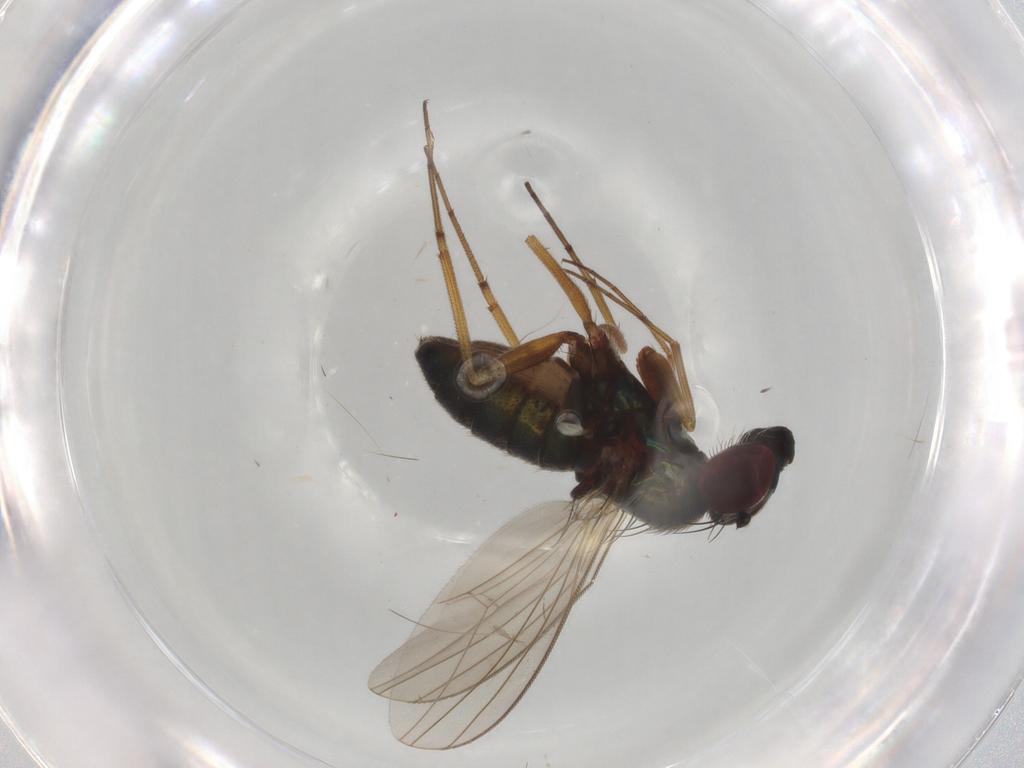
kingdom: Animalia
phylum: Arthropoda
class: Insecta
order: Diptera
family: Dolichopodidae
